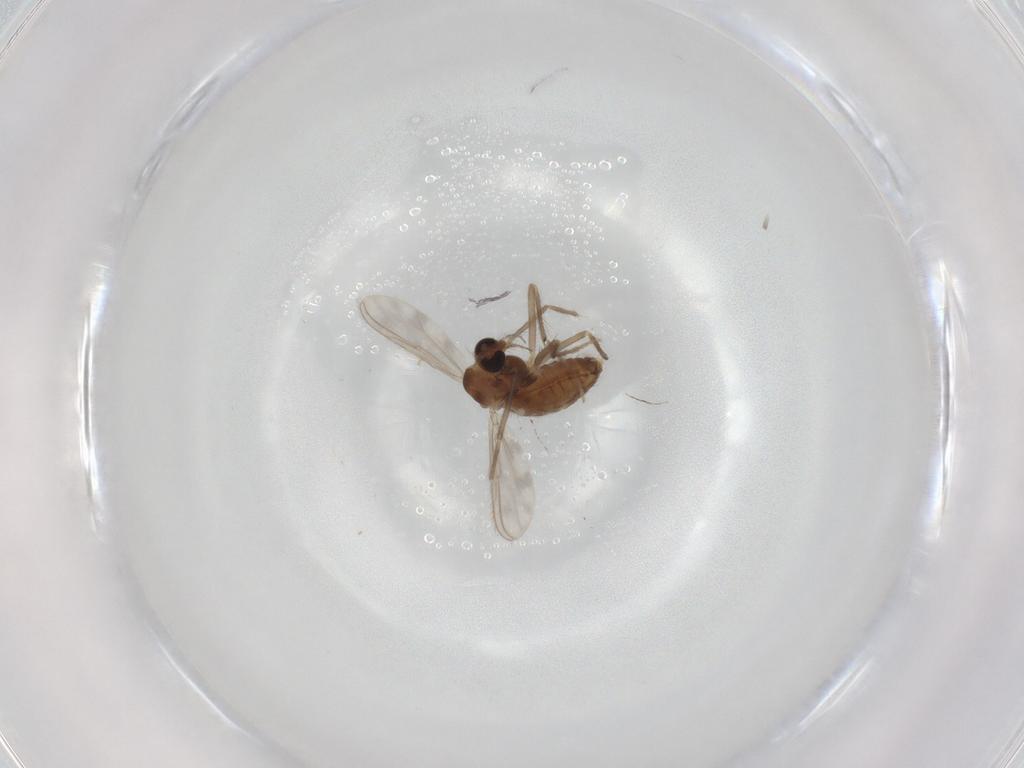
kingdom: Animalia
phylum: Arthropoda
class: Insecta
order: Diptera
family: Chironomidae
